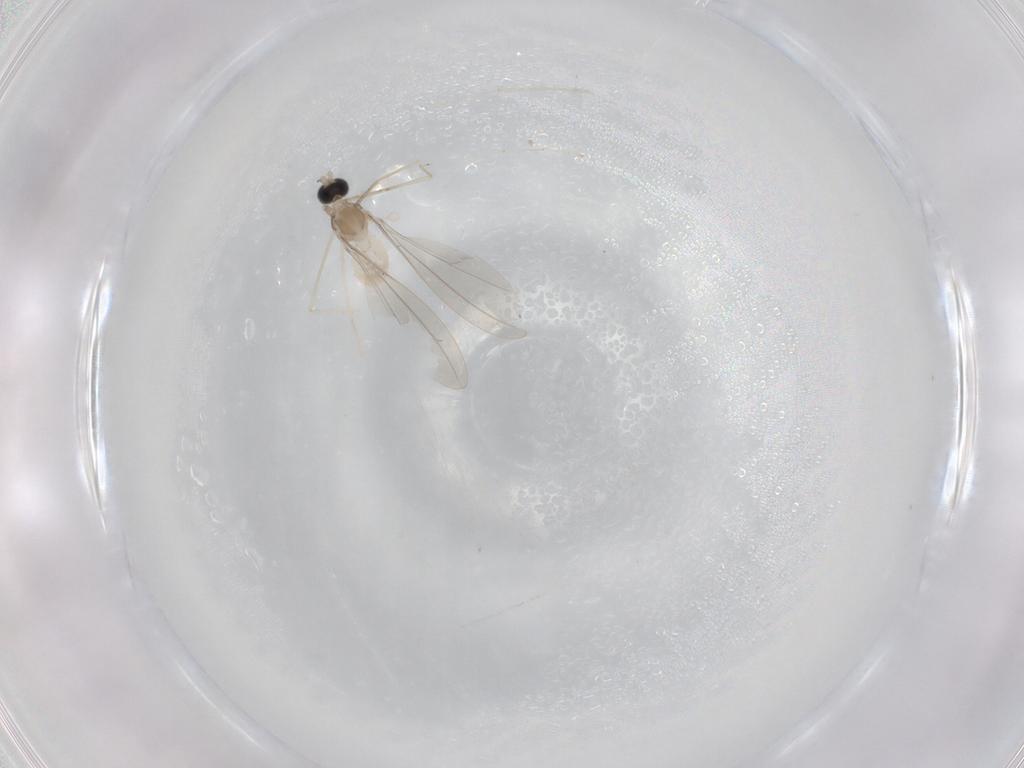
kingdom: Animalia
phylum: Arthropoda
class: Insecta
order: Diptera
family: Cecidomyiidae
